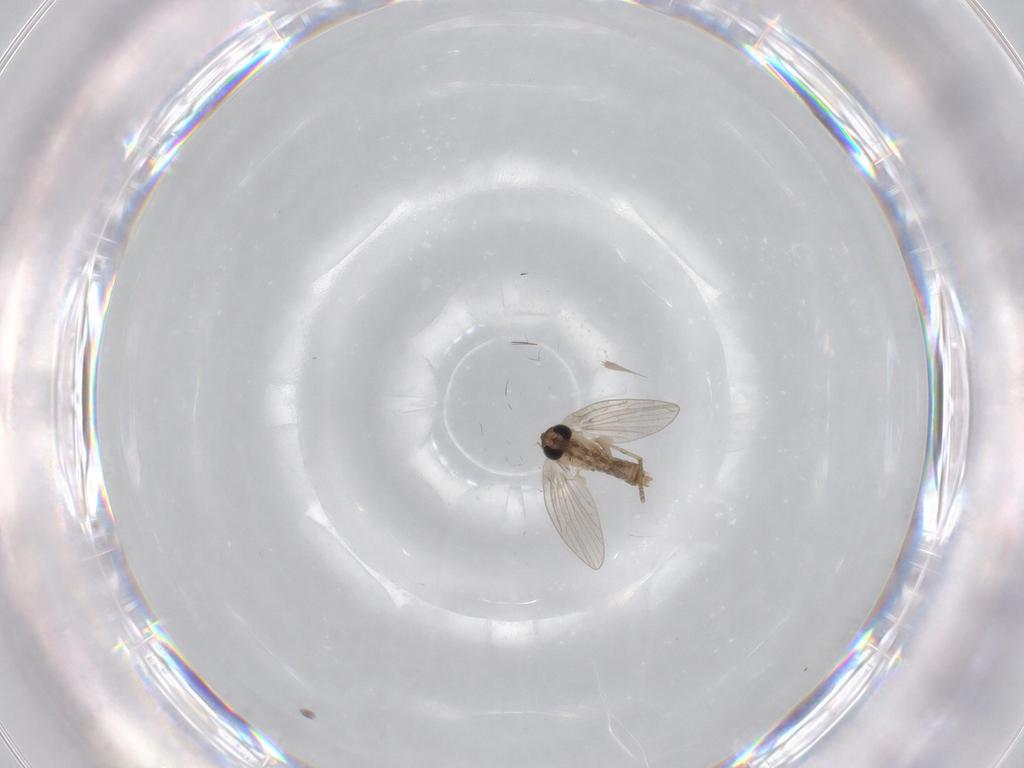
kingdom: Animalia
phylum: Arthropoda
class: Insecta
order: Diptera
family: Psychodidae
